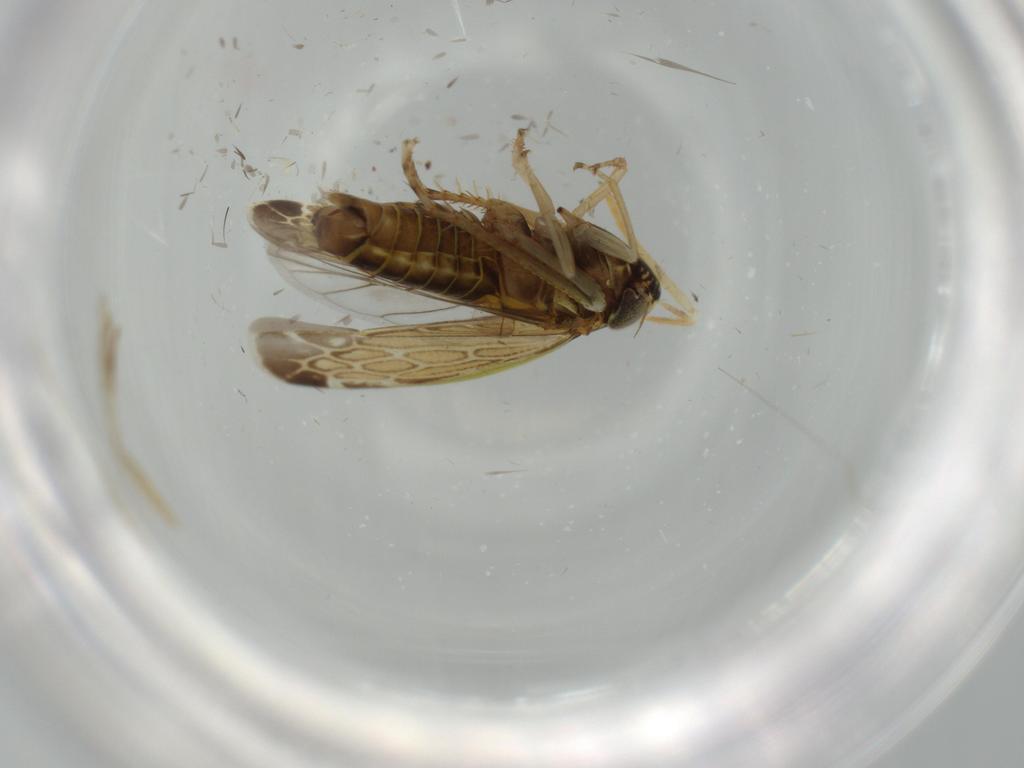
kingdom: Animalia
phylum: Arthropoda
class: Insecta
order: Hemiptera
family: Cicadellidae
